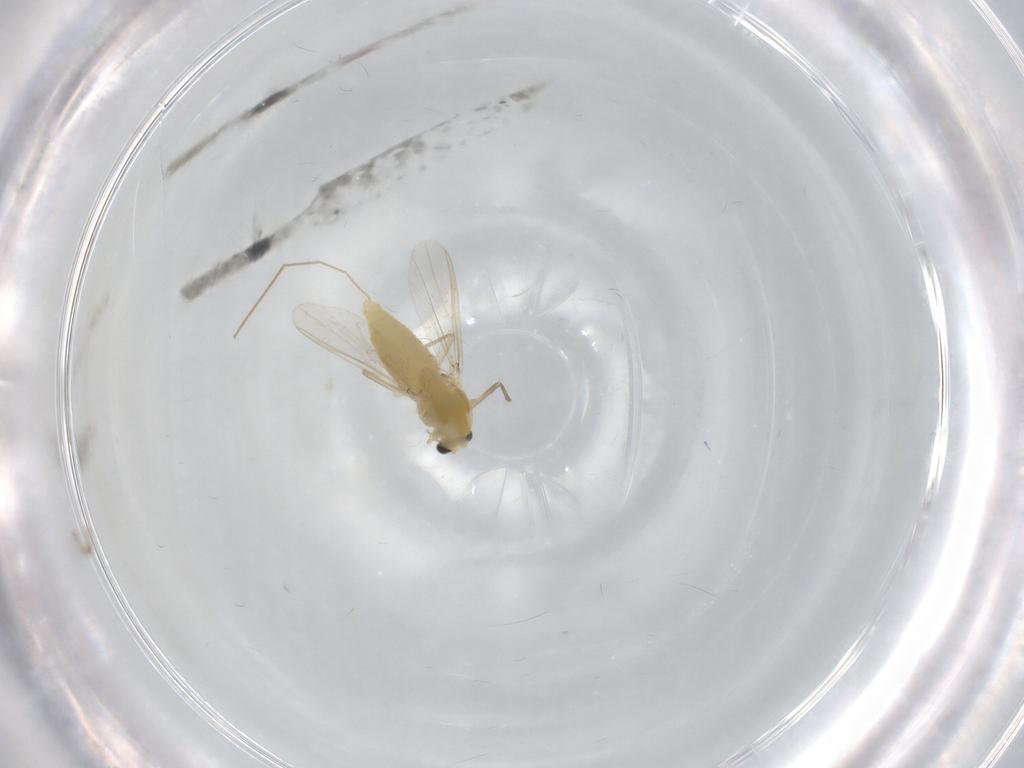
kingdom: Animalia
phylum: Arthropoda
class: Insecta
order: Diptera
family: Chironomidae
